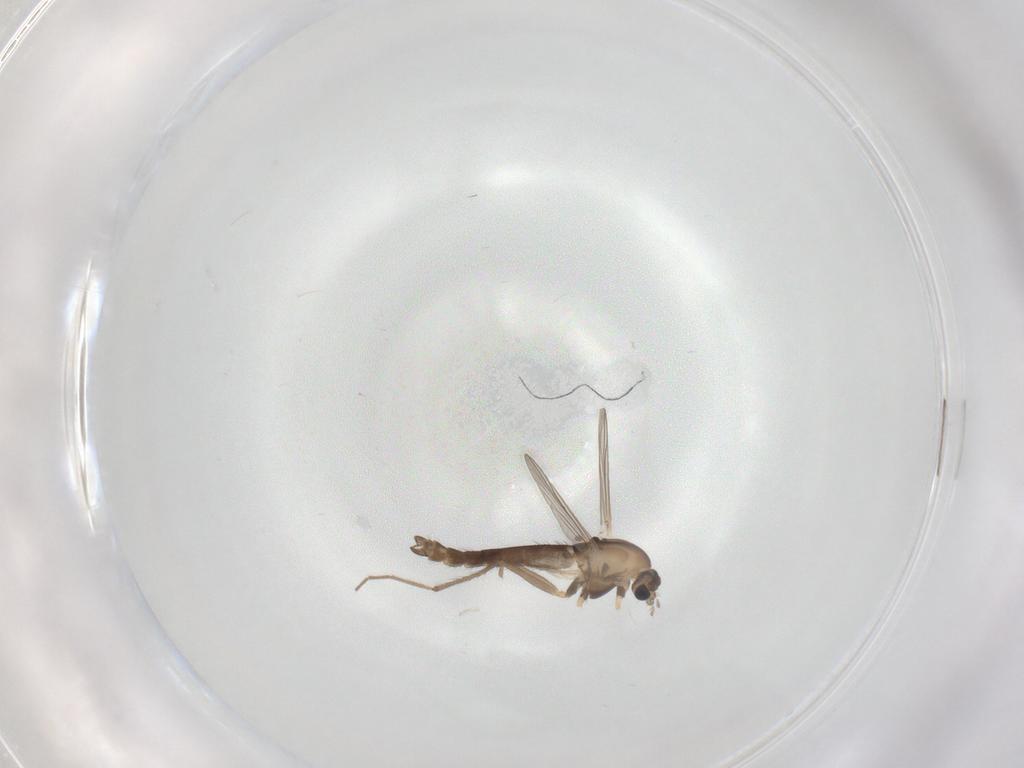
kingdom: Animalia
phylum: Arthropoda
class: Insecta
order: Diptera
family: Chironomidae
